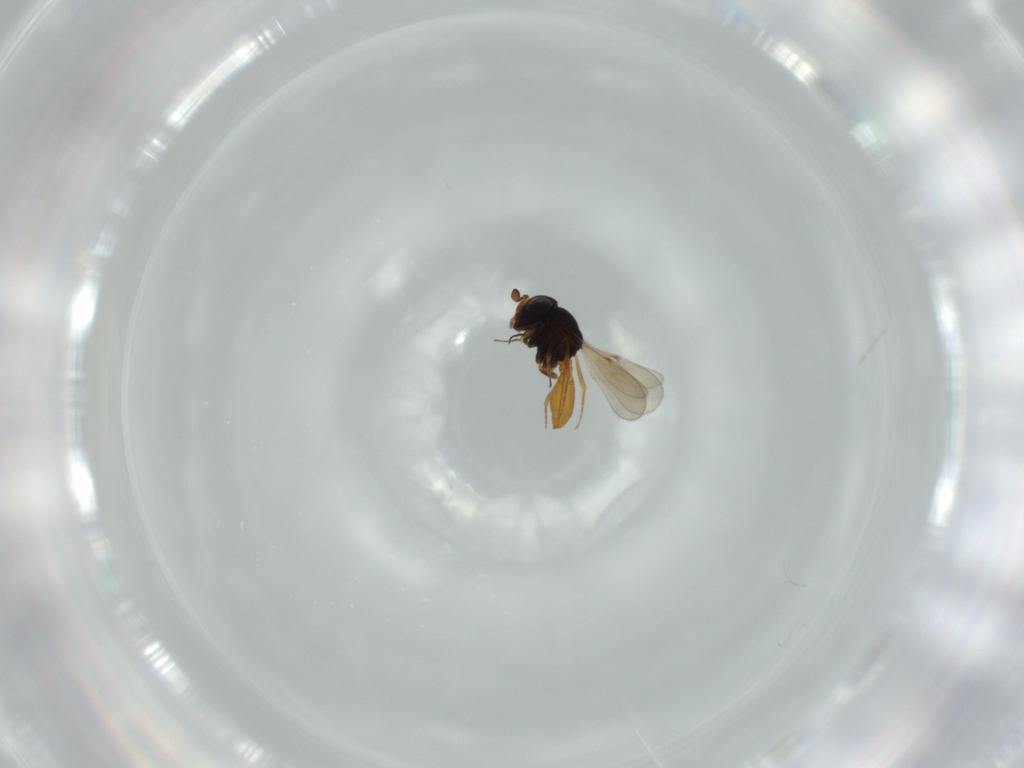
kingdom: Animalia
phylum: Arthropoda
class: Insecta
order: Hymenoptera
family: Scelionidae
